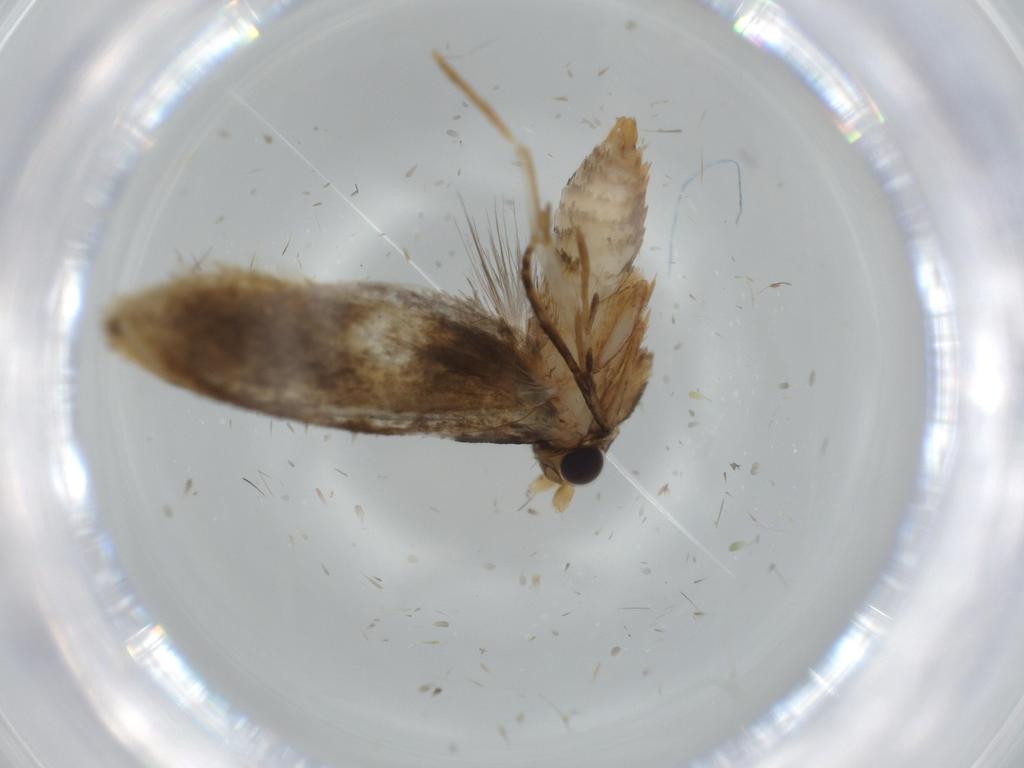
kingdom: Animalia
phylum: Arthropoda
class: Insecta
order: Lepidoptera
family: Tineidae
